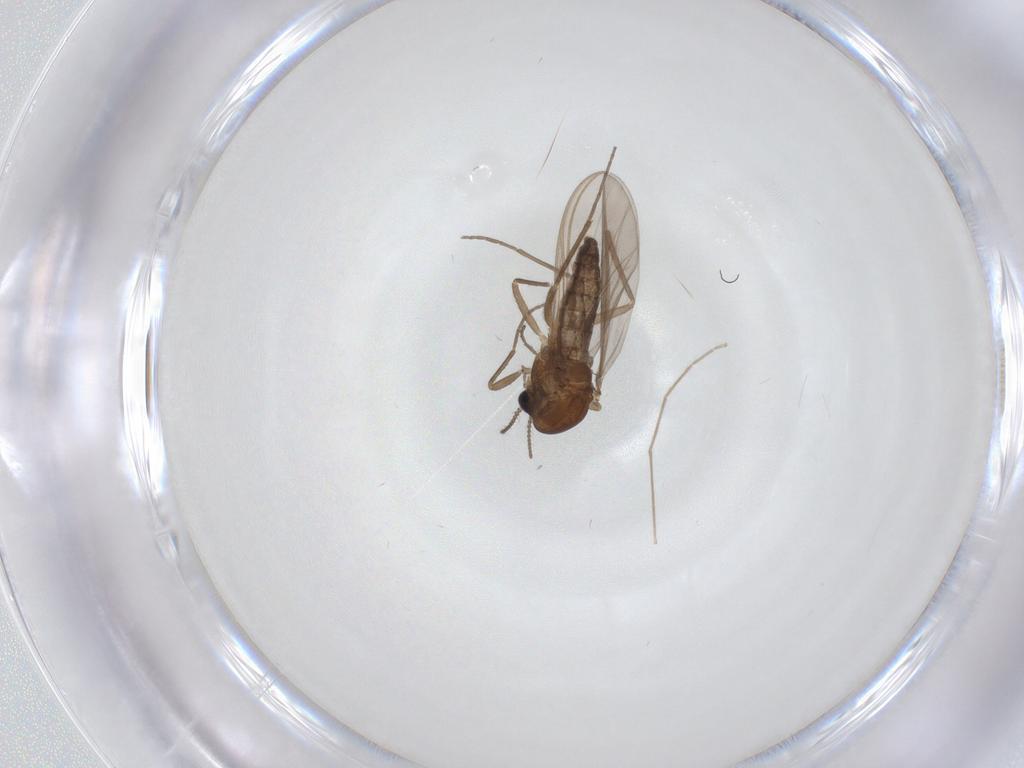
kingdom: Animalia
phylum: Arthropoda
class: Insecta
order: Diptera
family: Chironomidae
